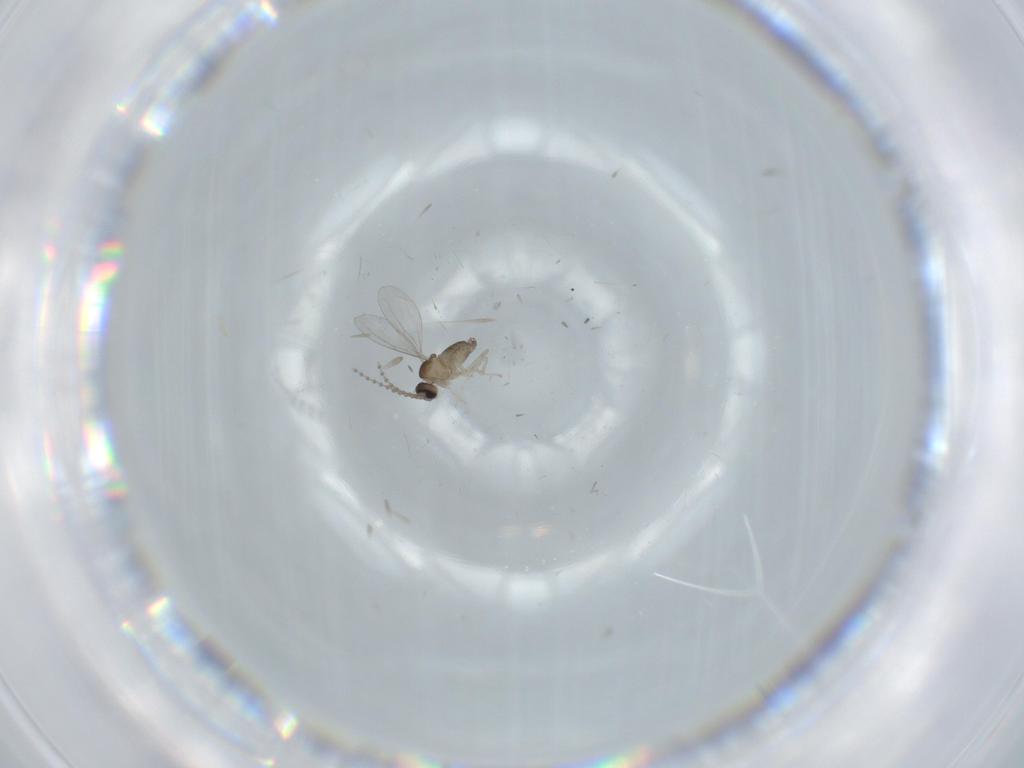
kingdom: Animalia
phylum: Arthropoda
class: Insecta
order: Diptera
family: Cecidomyiidae
